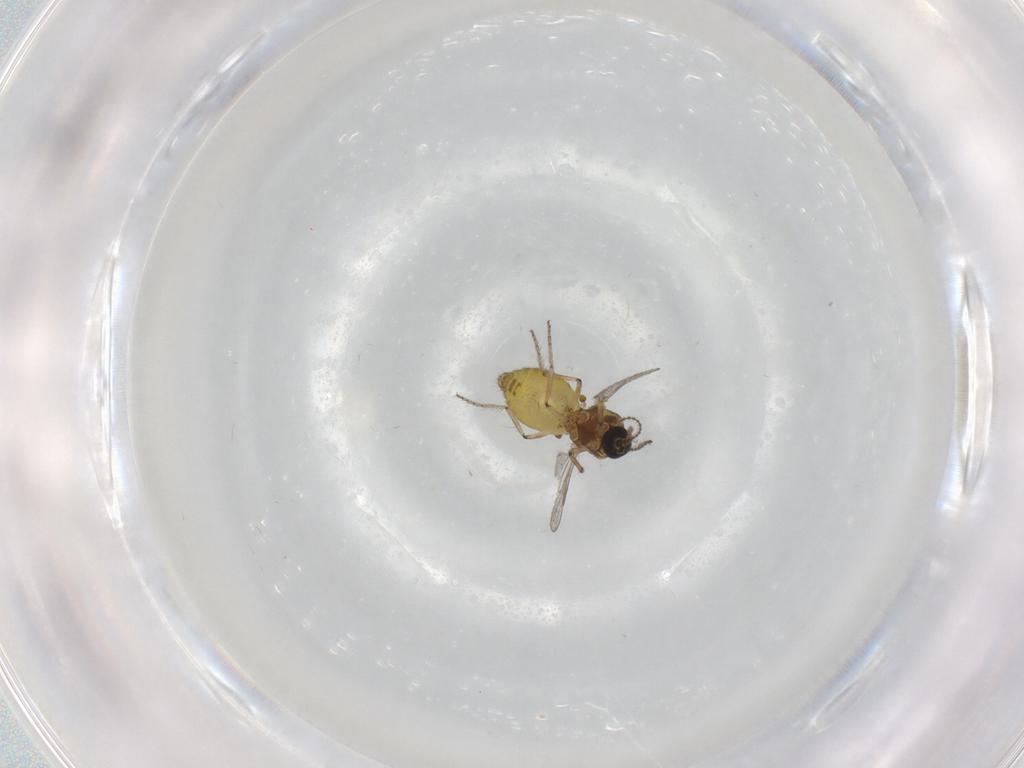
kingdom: Animalia
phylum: Arthropoda
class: Insecta
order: Diptera
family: Ceratopogonidae
